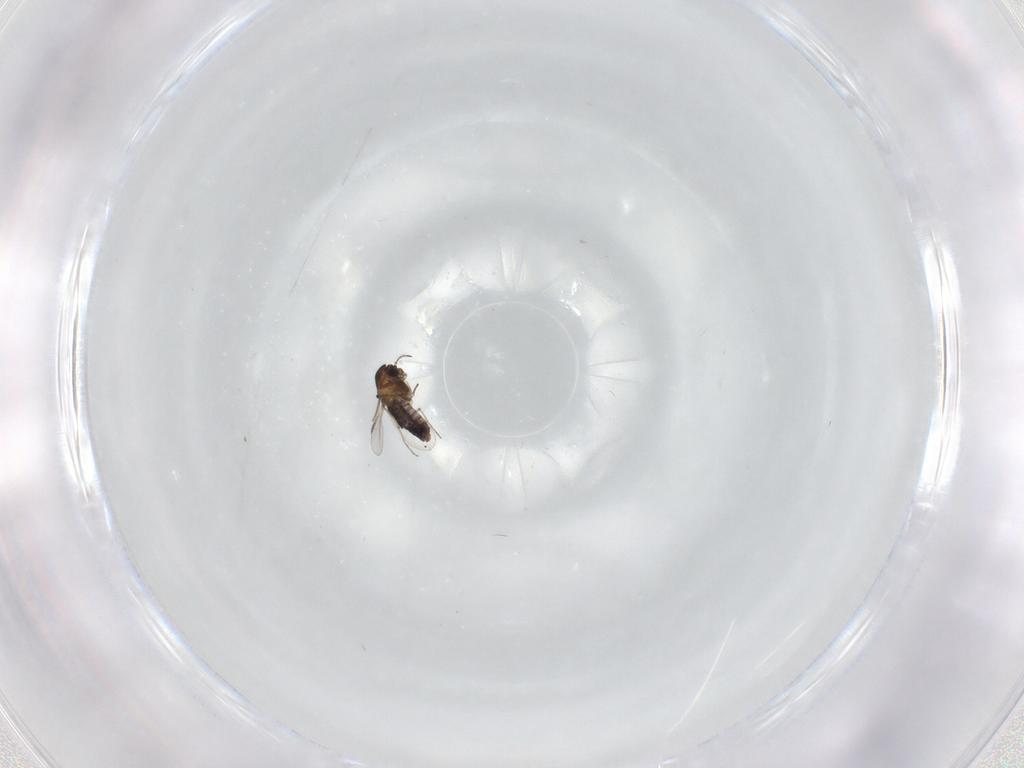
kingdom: Animalia
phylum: Arthropoda
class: Insecta
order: Diptera
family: Chironomidae
